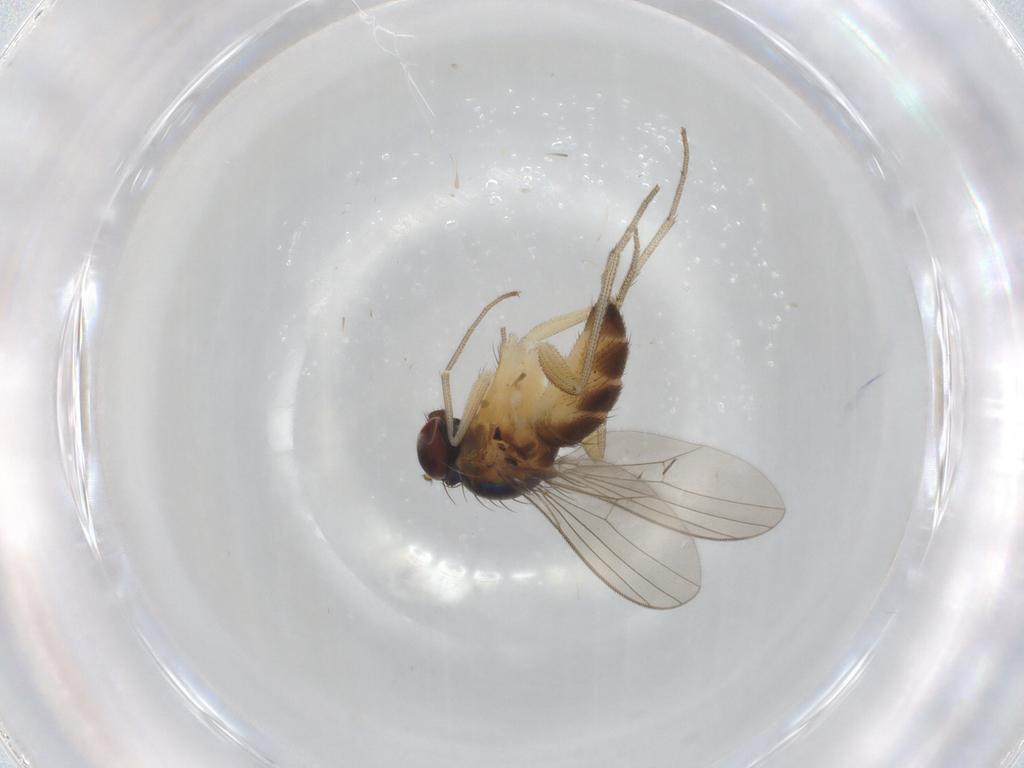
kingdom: Animalia
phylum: Arthropoda
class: Insecta
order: Diptera
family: Dolichopodidae
